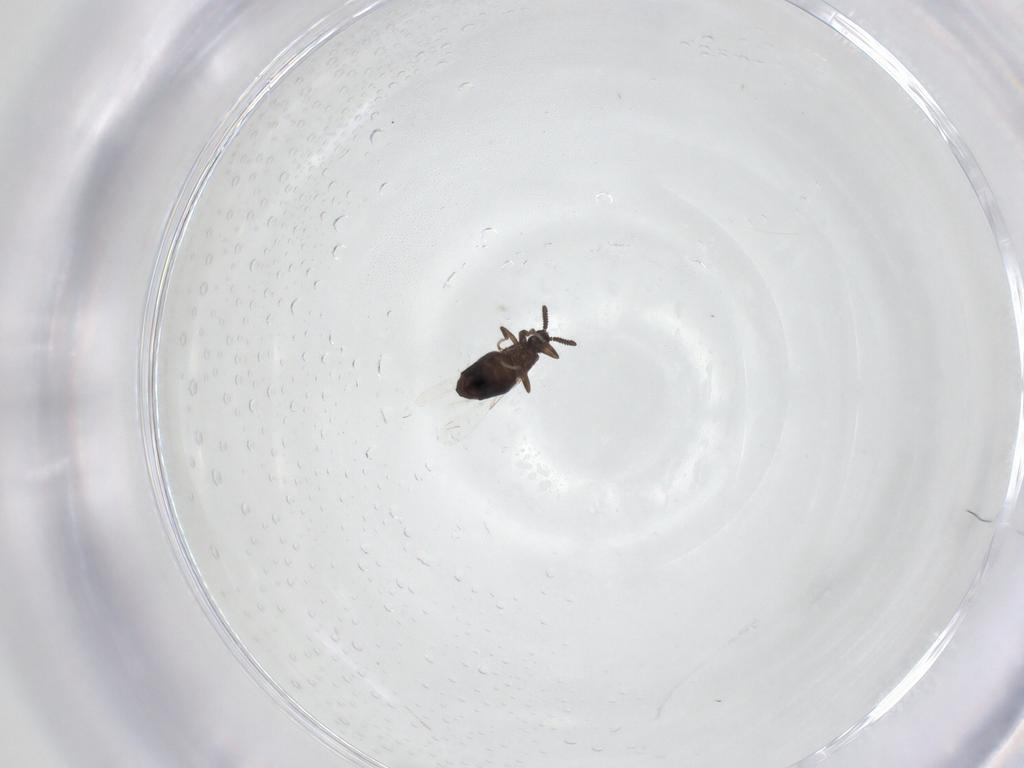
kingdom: Animalia
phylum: Arthropoda
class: Insecta
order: Diptera
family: Scatopsidae
